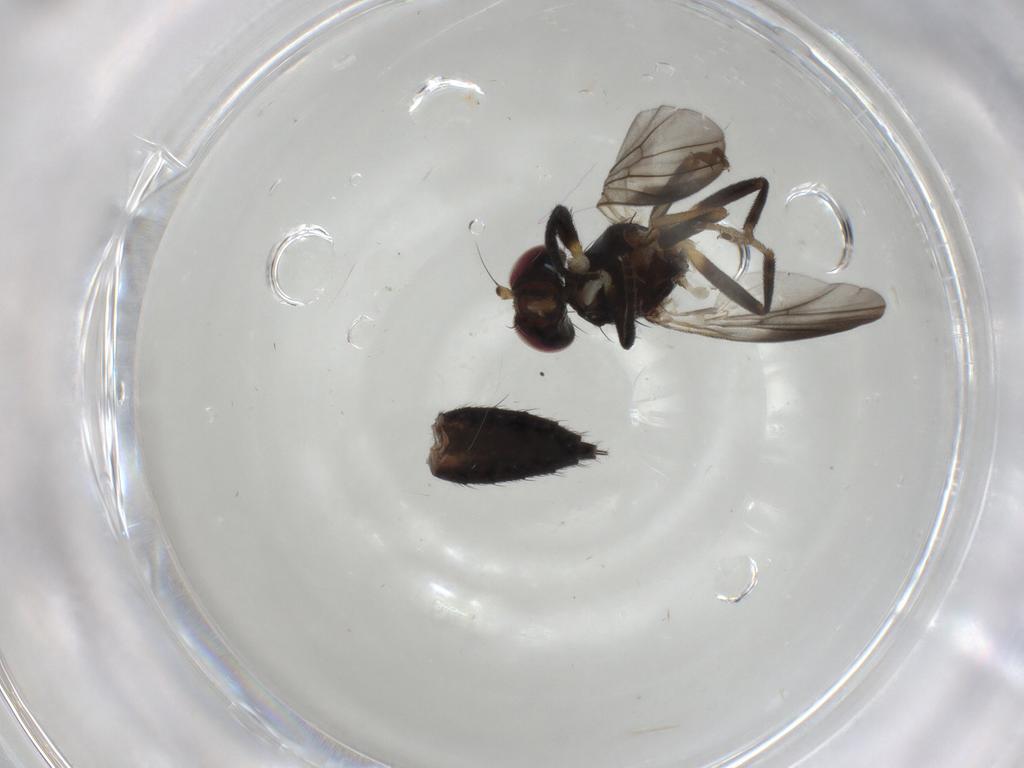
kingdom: Animalia
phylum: Arthropoda
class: Insecta
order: Diptera
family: Clusiidae
